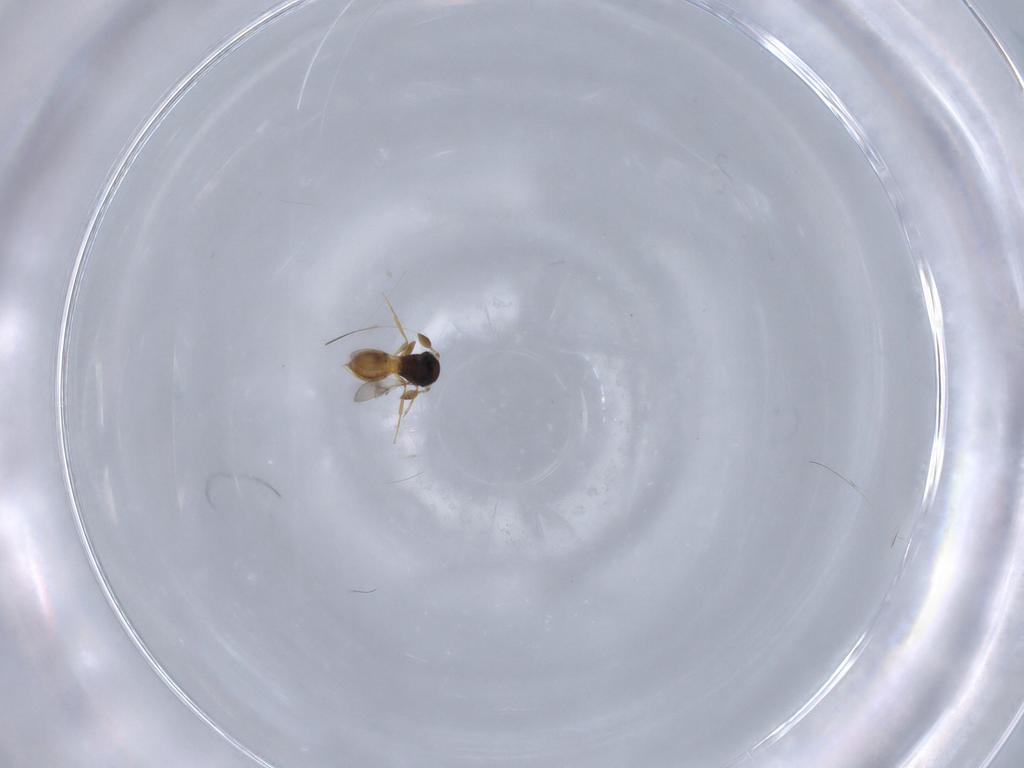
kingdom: Animalia
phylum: Arthropoda
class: Insecta
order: Hymenoptera
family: Scelionidae
